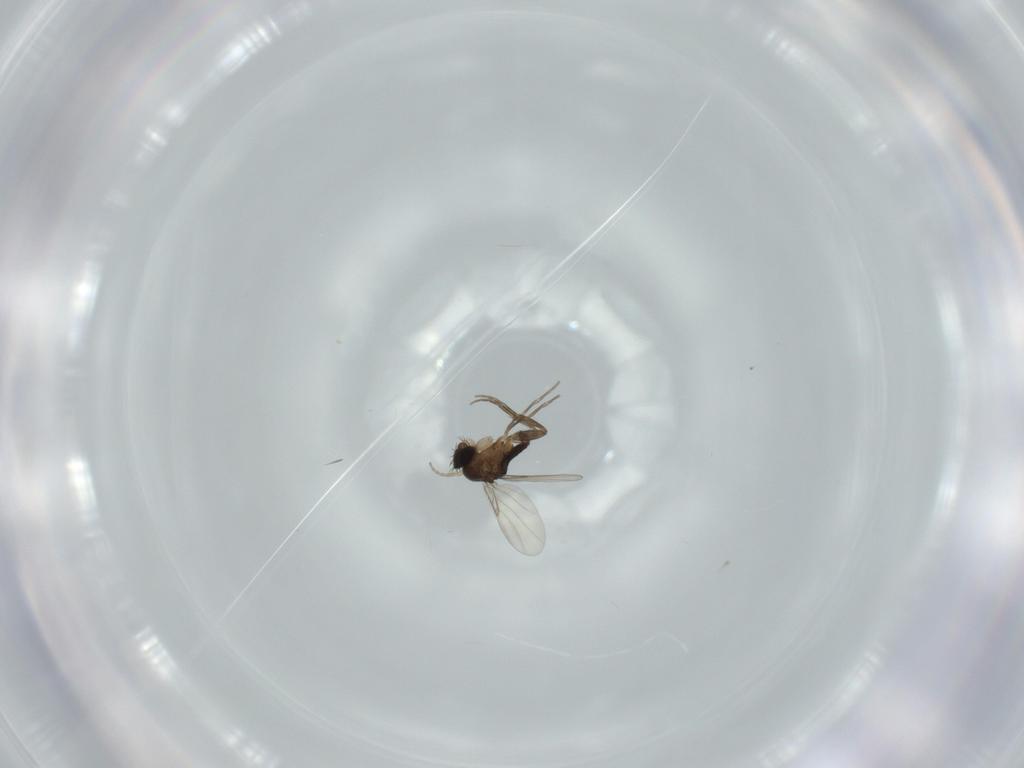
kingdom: Animalia
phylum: Arthropoda
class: Insecta
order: Diptera
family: Phoridae
